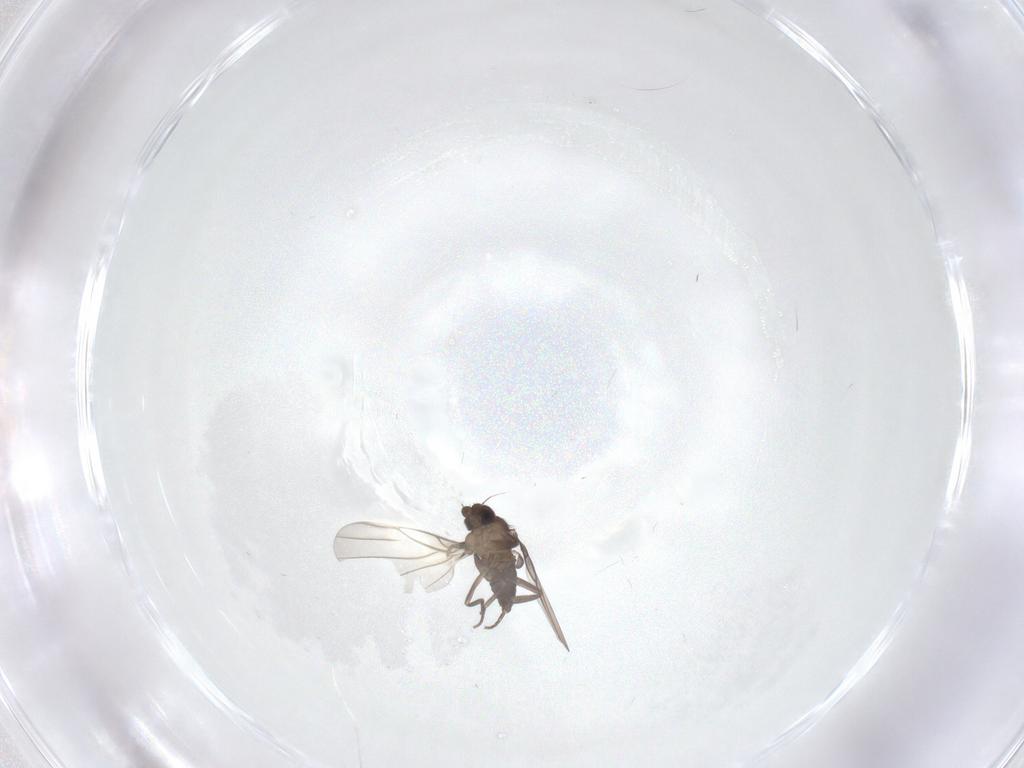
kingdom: Animalia
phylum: Arthropoda
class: Insecta
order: Diptera
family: Phoridae
